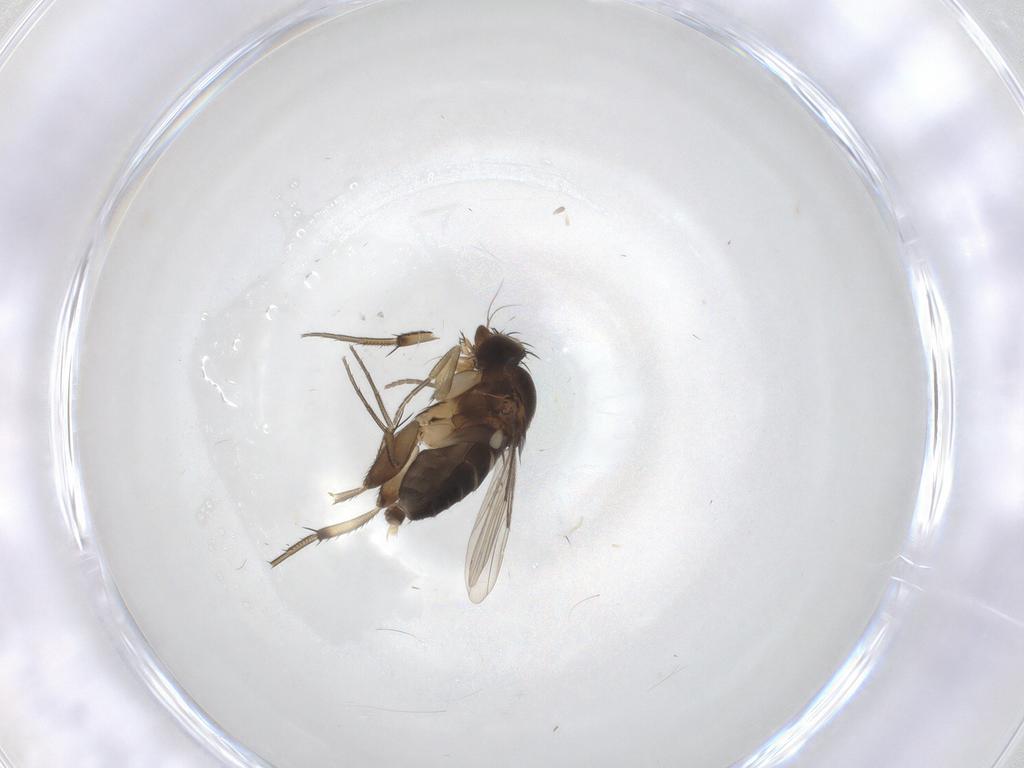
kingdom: Animalia
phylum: Arthropoda
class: Insecta
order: Diptera
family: Phoridae
